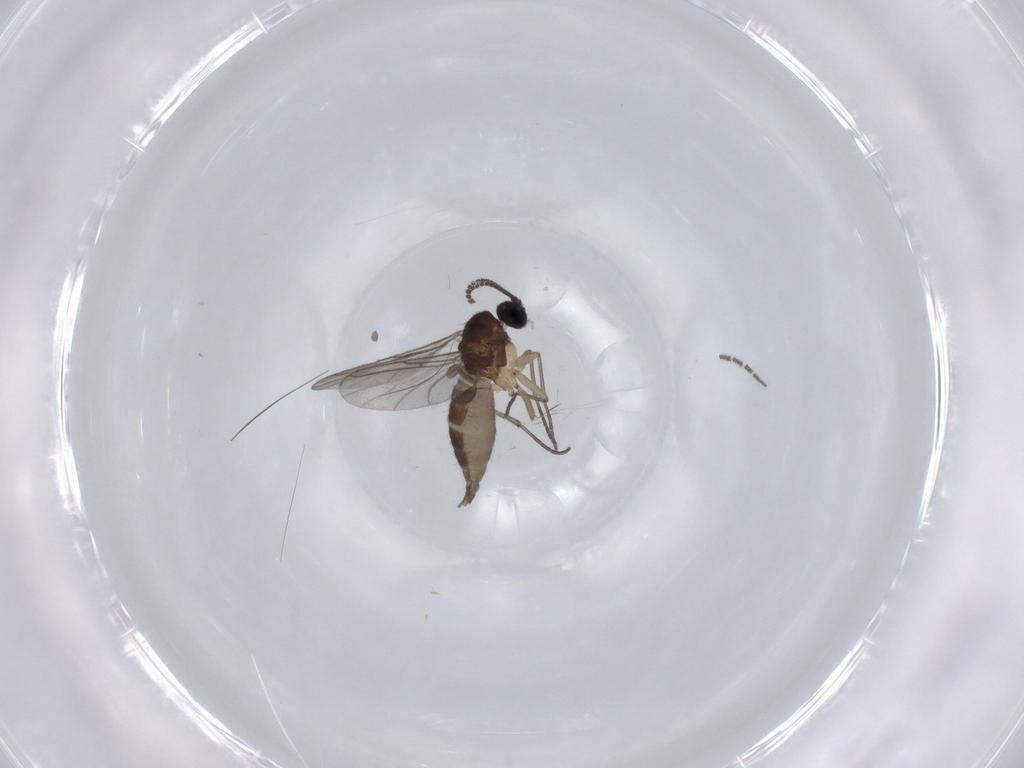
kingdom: Animalia
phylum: Arthropoda
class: Insecta
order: Diptera
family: Sciaridae
